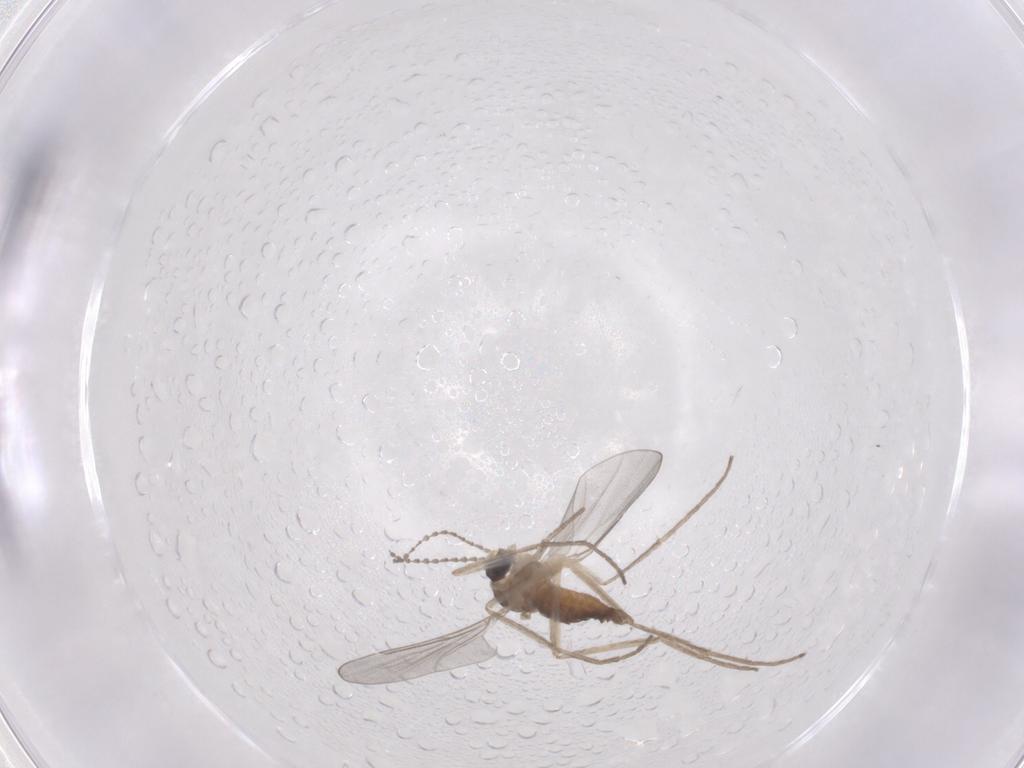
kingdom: Animalia
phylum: Arthropoda
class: Insecta
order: Diptera
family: Cecidomyiidae
